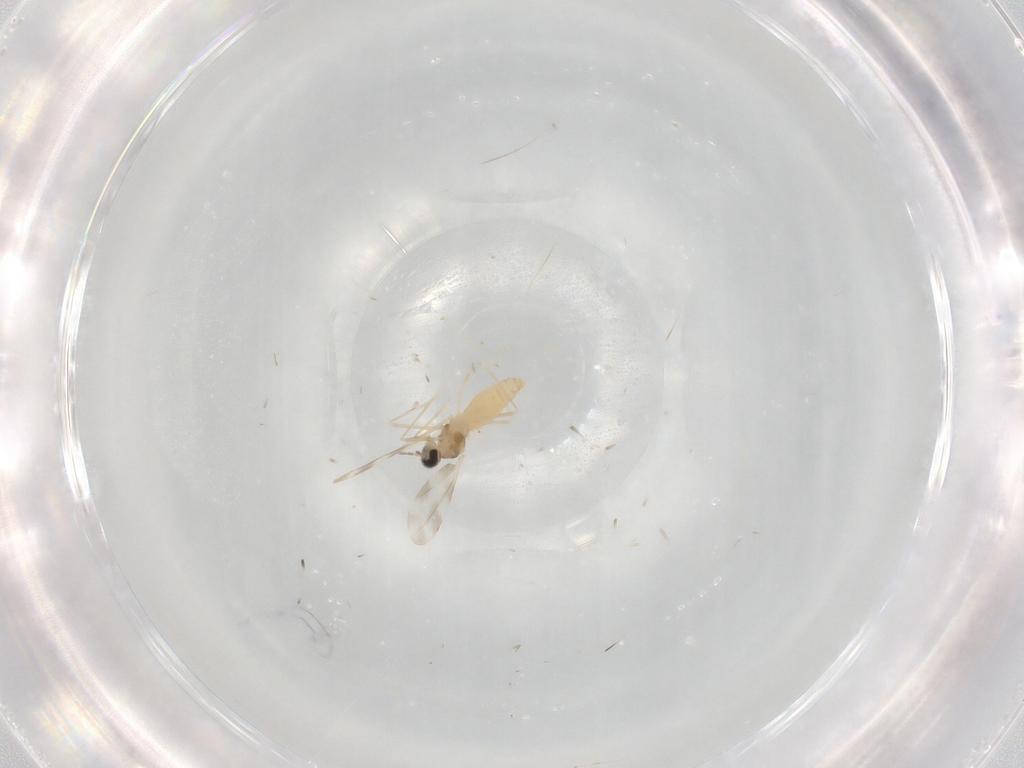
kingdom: Animalia
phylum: Arthropoda
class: Insecta
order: Diptera
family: Cecidomyiidae
